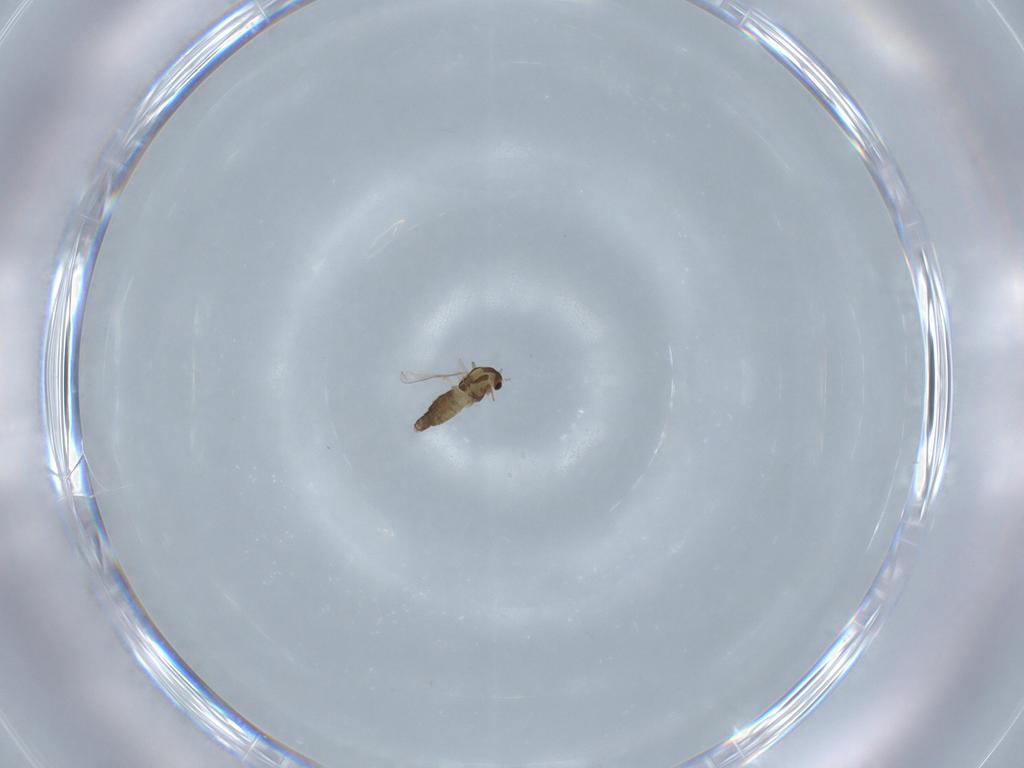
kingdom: Animalia
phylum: Arthropoda
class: Insecta
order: Diptera
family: Chironomidae
